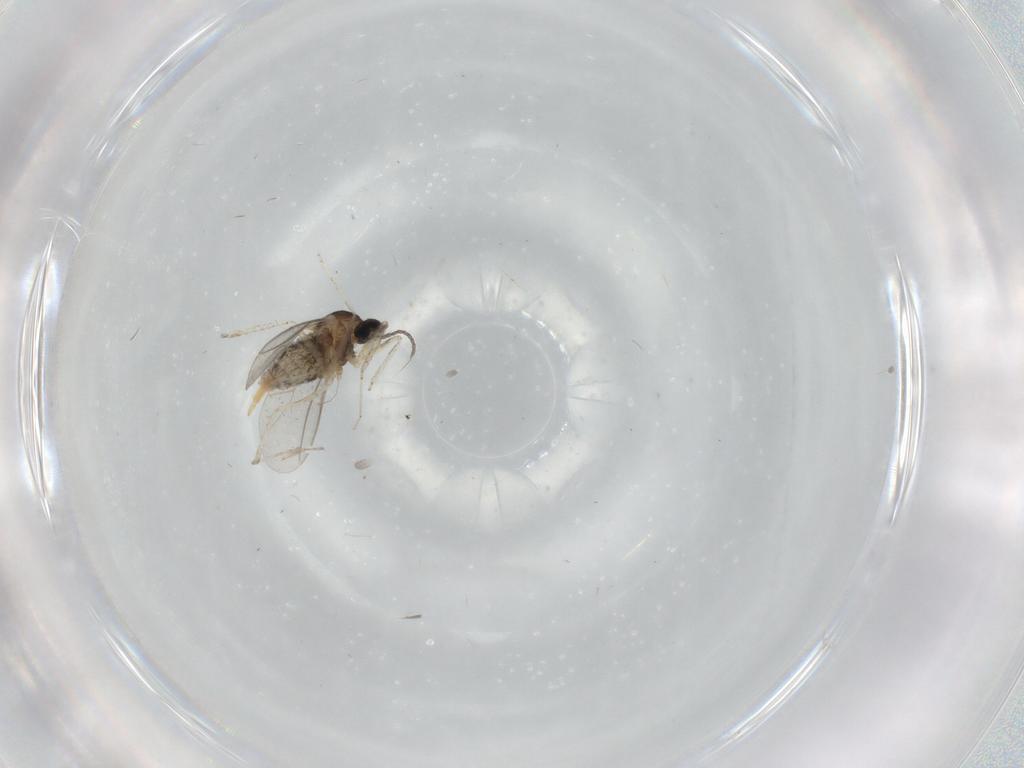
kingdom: Animalia
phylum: Arthropoda
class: Insecta
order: Diptera
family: Cecidomyiidae
